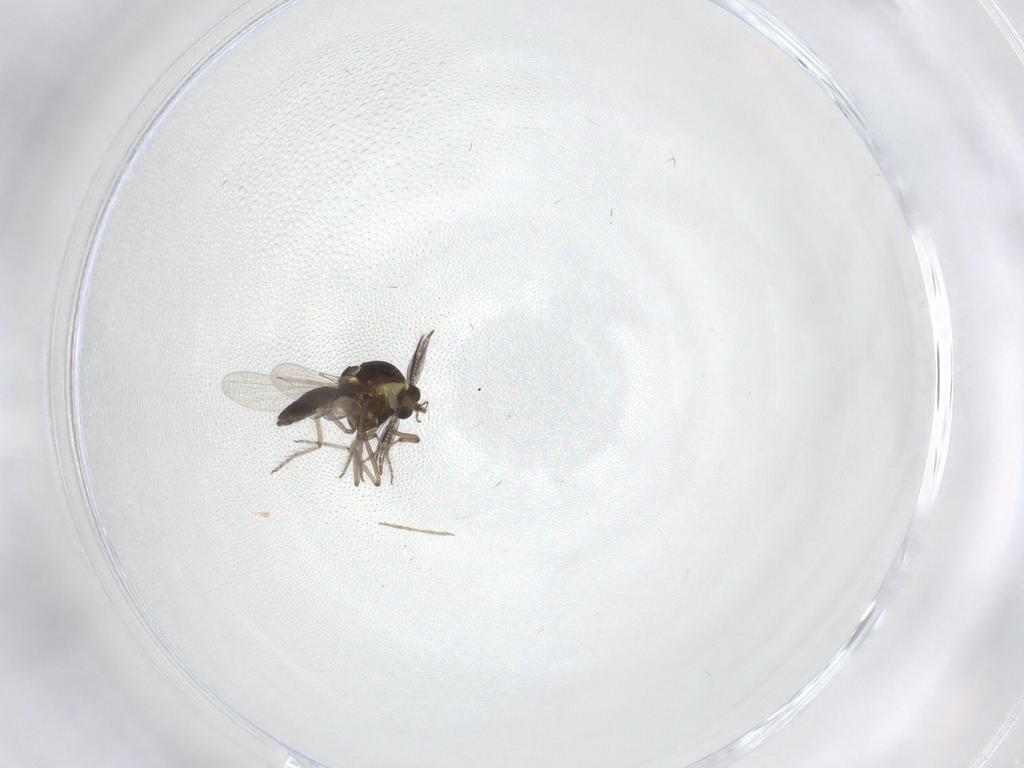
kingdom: Animalia
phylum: Arthropoda
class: Insecta
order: Diptera
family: Ceratopogonidae
